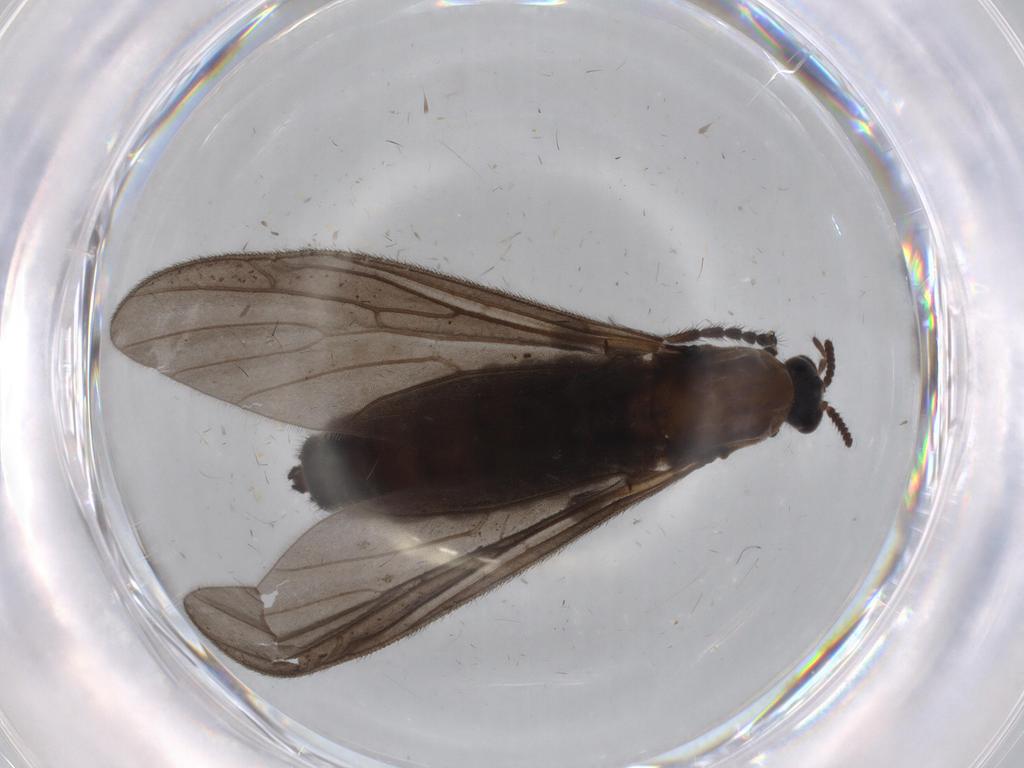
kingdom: Animalia
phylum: Arthropoda
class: Insecta
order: Diptera
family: Bibionidae
